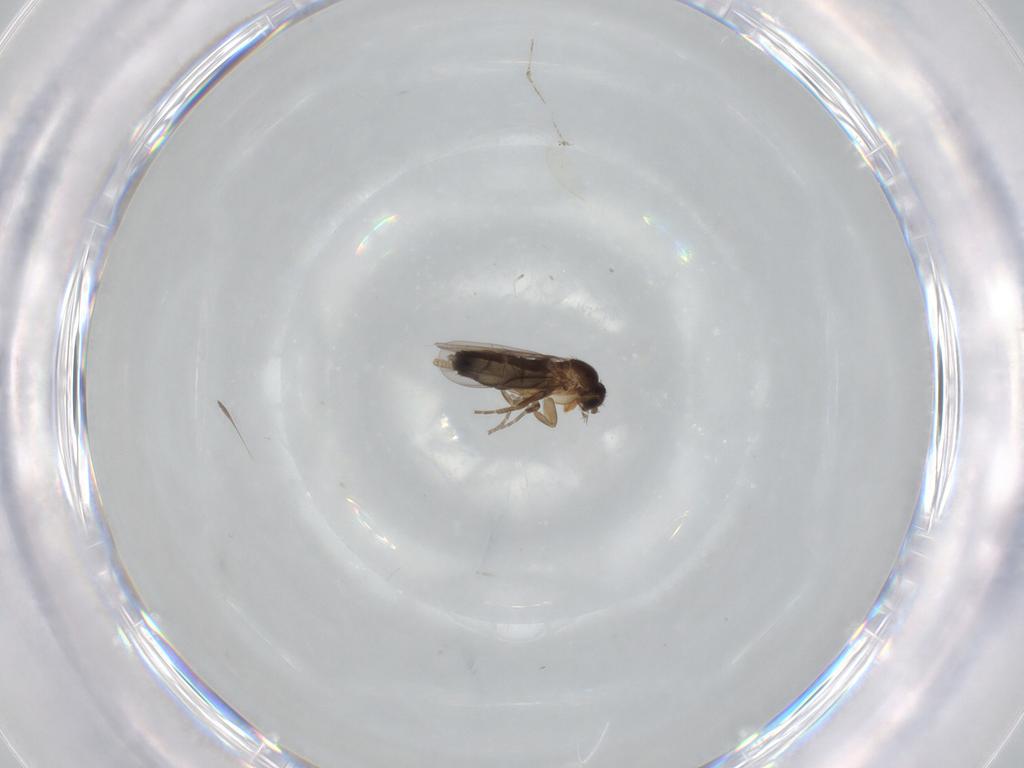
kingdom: Animalia
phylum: Arthropoda
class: Insecta
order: Diptera
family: Phoridae
